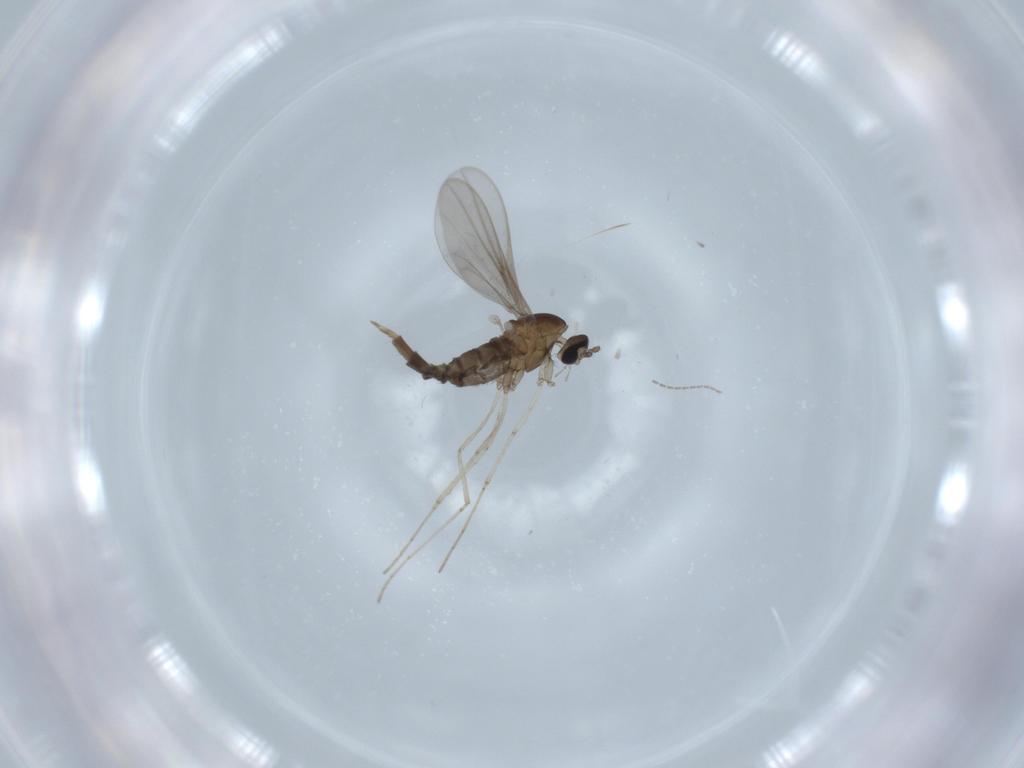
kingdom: Animalia
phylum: Arthropoda
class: Insecta
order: Diptera
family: Cecidomyiidae
